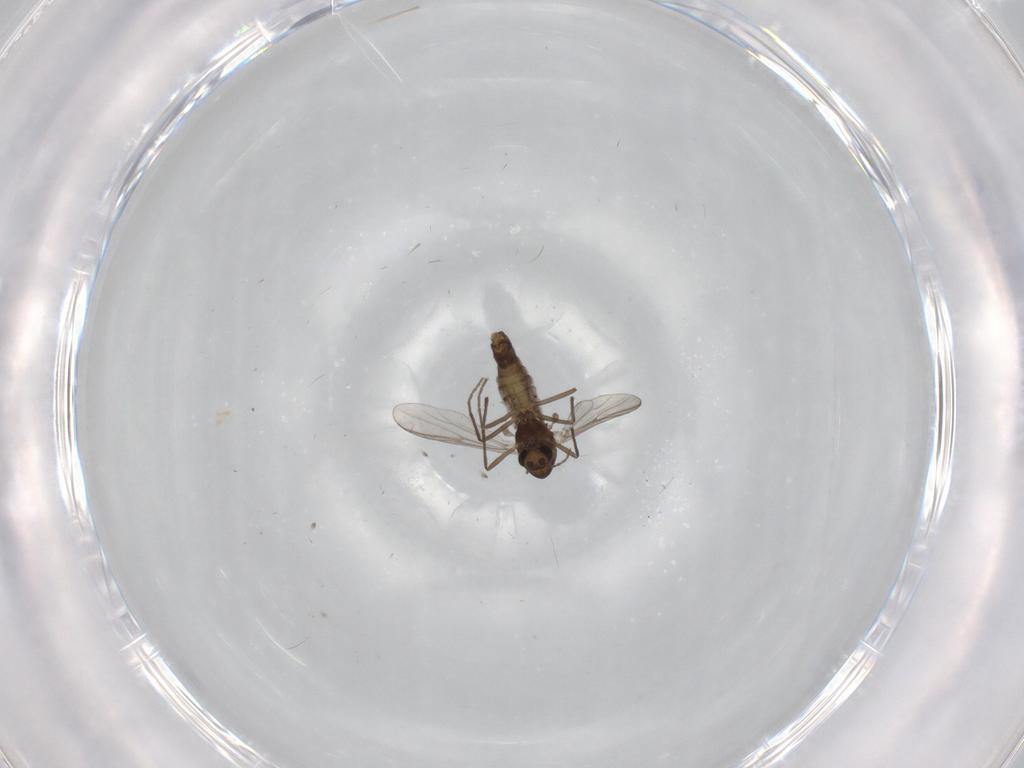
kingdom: Animalia
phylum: Arthropoda
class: Insecta
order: Diptera
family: Chironomidae
